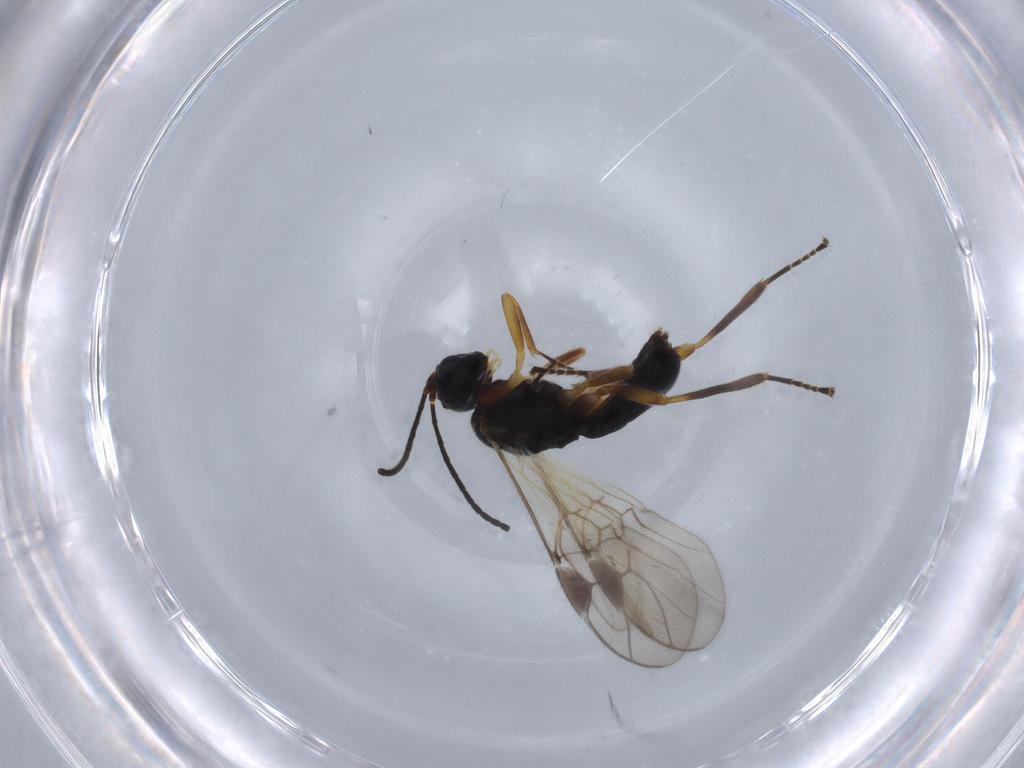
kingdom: Animalia
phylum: Arthropoda
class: Insecta
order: Hymenoptera
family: Braconidae
